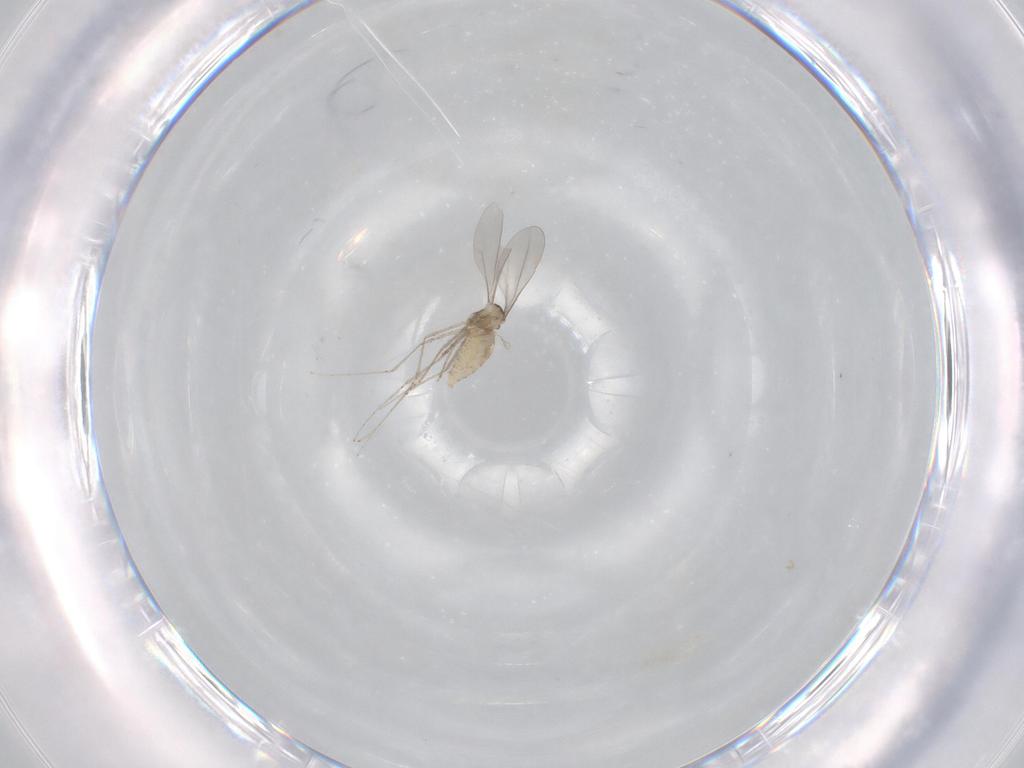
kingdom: Animalia
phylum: Arthropoda
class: Insecta
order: Diptera
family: Cecidomyiidae
